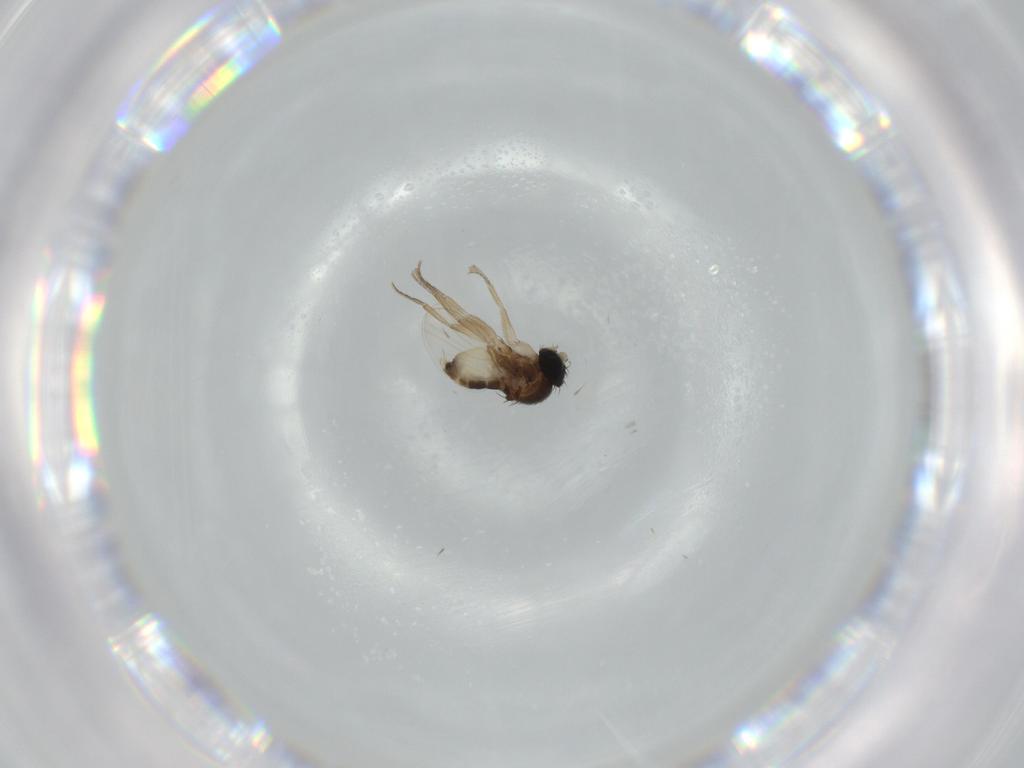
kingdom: Animalia
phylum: Arthropoda
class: Insecta
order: Diptera
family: Phoridae
